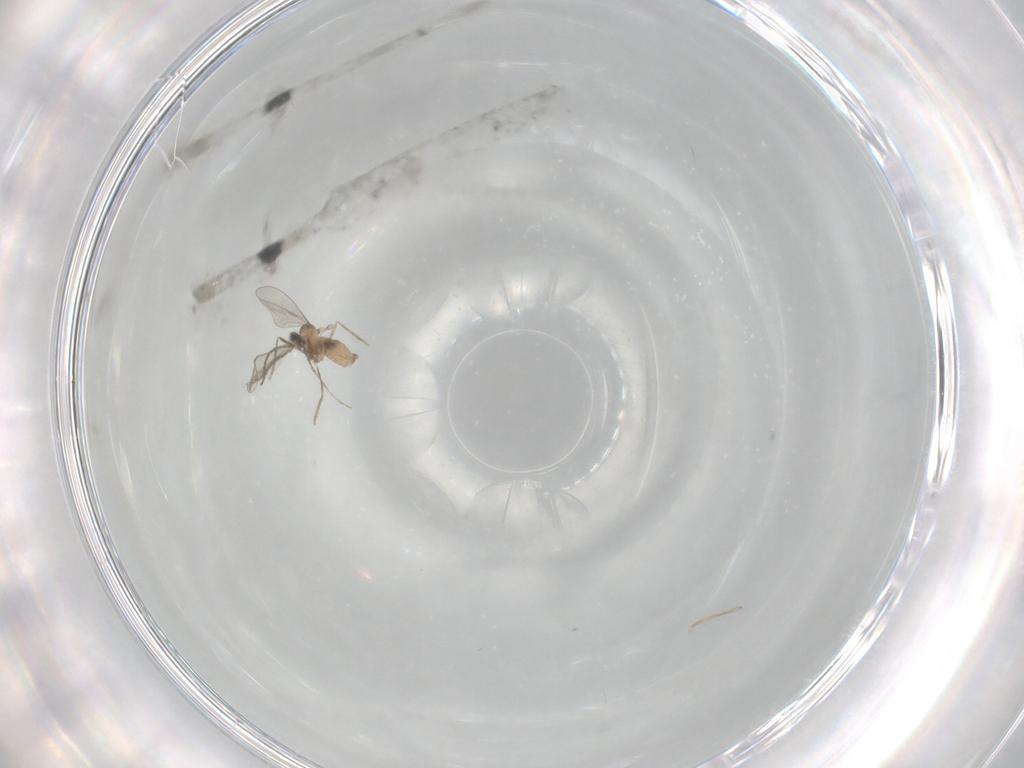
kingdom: Animalia
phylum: Arthropoda
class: Insecta
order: Diptera
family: Cecidomyiidae
